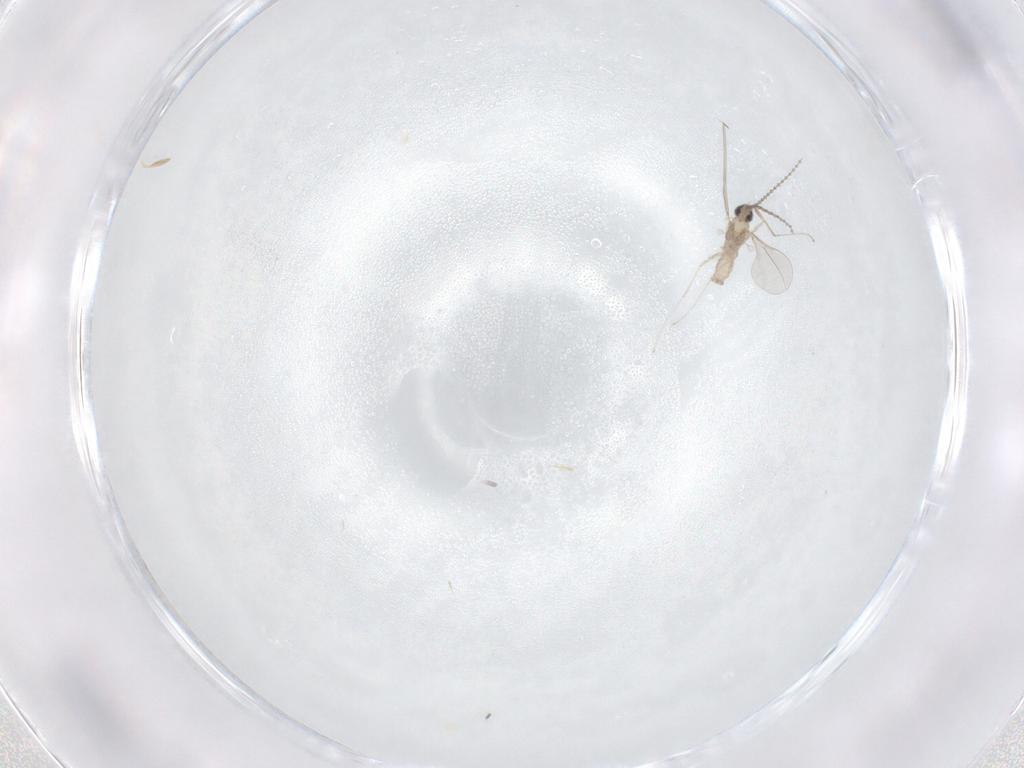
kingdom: Animalia
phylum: Arthropoda
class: Insecta
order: Diptera
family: Cecidomyiidae
